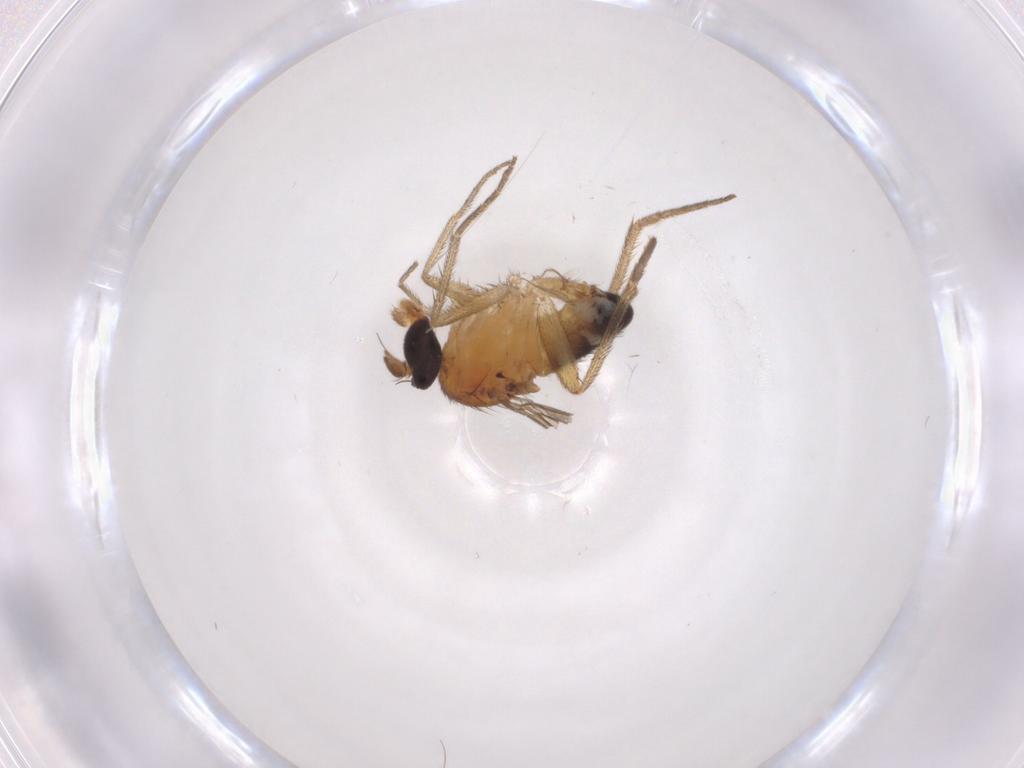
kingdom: Animalia
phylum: Arthropoda
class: Insecta
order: Diptera
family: Dolichopodidae
